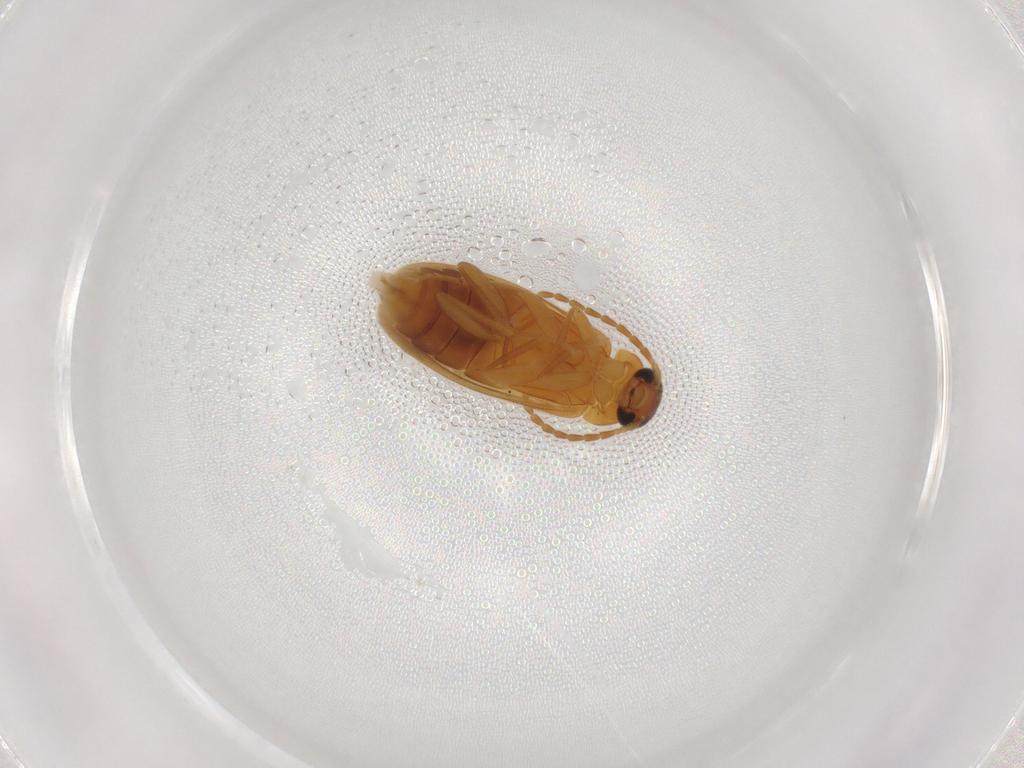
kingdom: Animalia
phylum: Arthropoda
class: Insecta
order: Coleoptera
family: Scraptiidae
